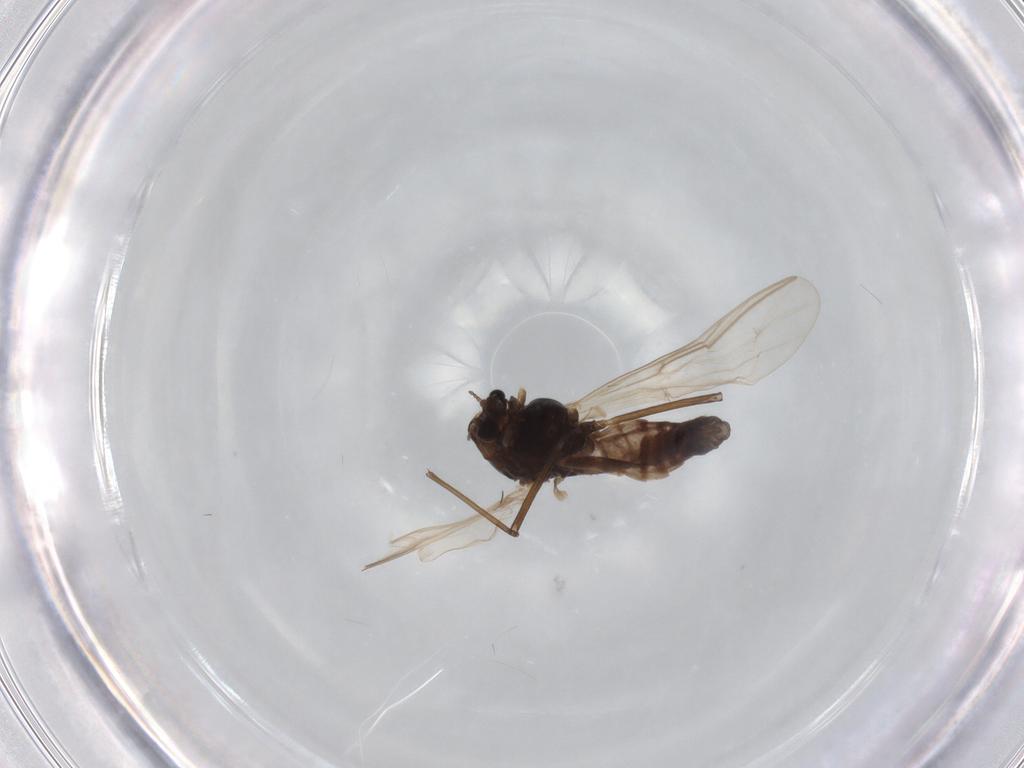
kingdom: Animalia
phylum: Arthropoda
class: Insecta
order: Diptera
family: Chironomidae
